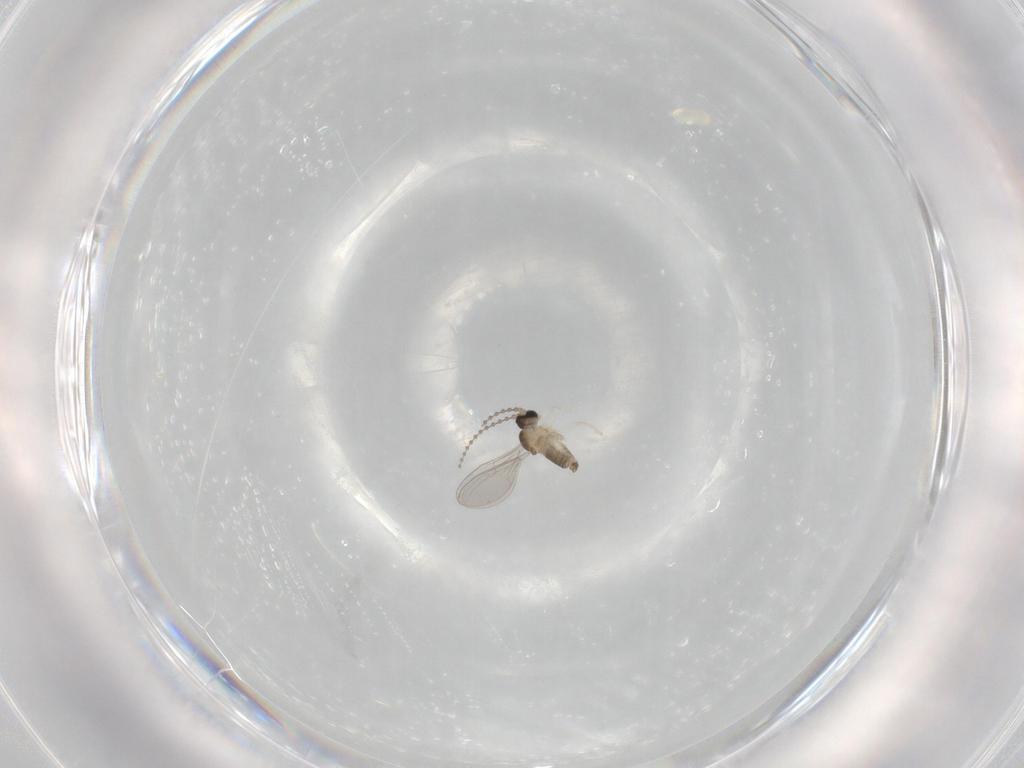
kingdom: Animalia
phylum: Arthropoda
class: Insecta
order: Diptera
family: Cecidomyiidae
